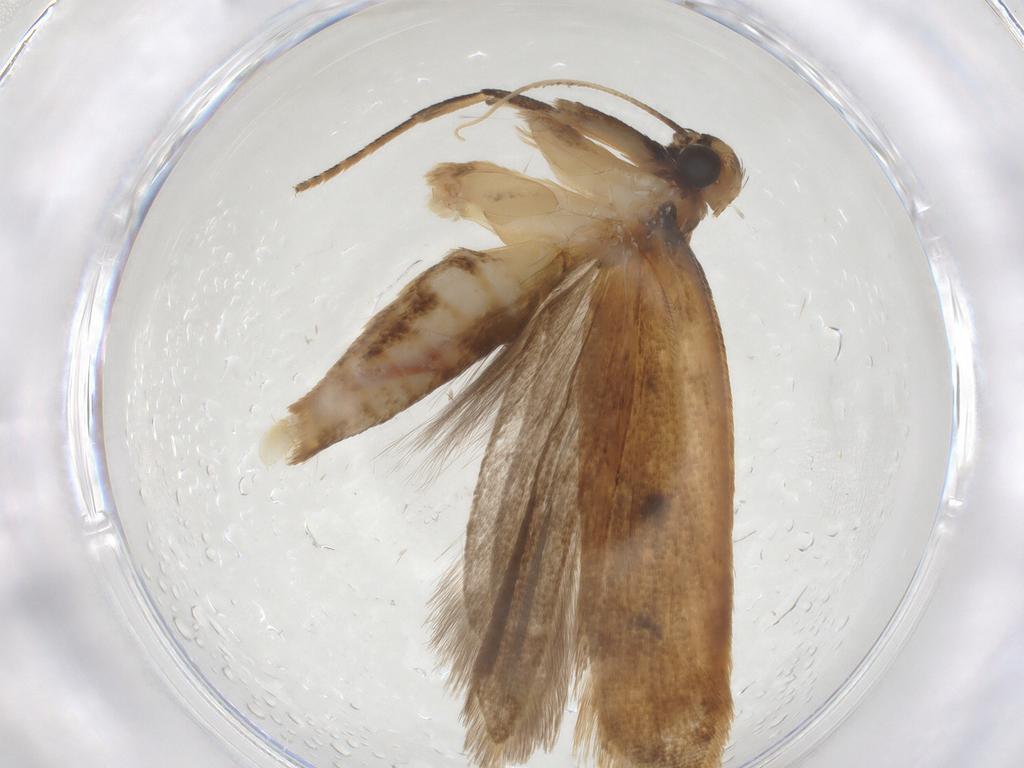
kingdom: Animalia
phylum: Arthropoda
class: Insecta
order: Lepidoptera
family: Gelechiidae
